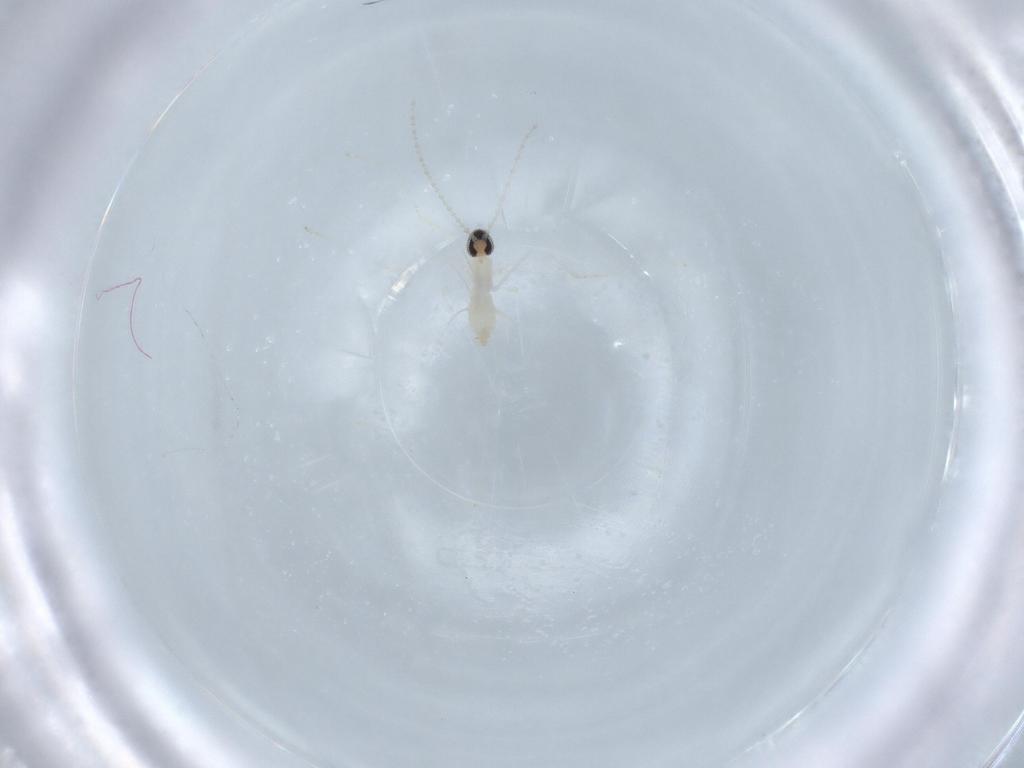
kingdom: Animalia
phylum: Arthropoda
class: Insecta
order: Diptera
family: Cecidomyiidae
